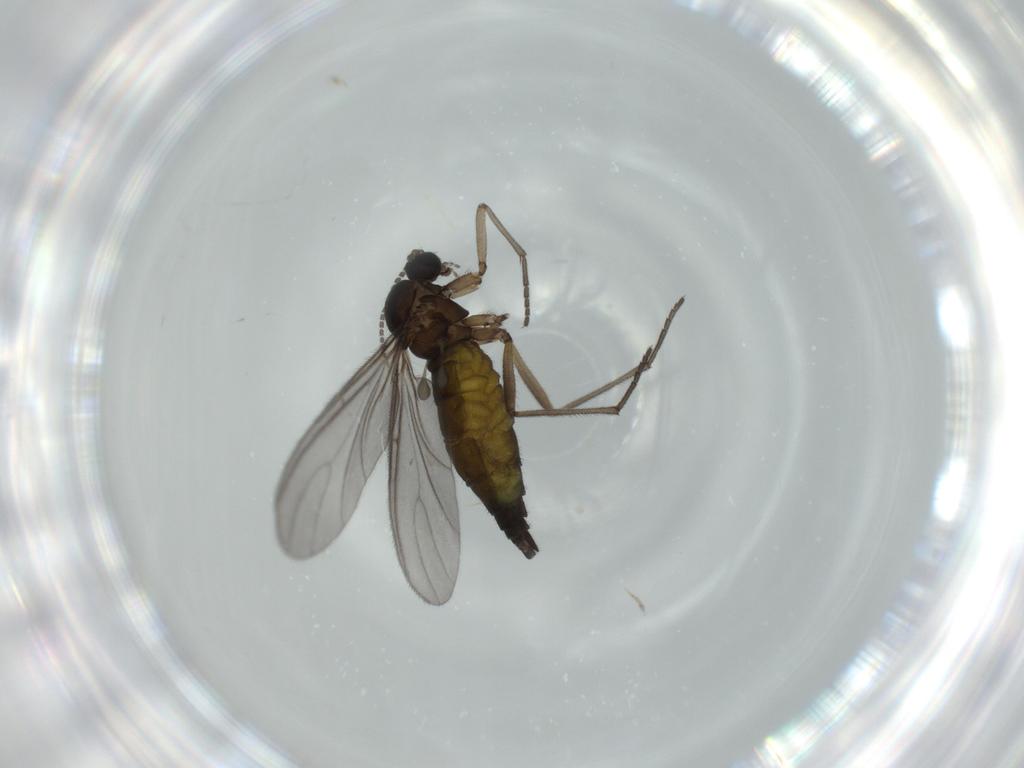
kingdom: Animalia
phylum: Arthropoda
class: Insecta
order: Diptera
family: Sciaridae
